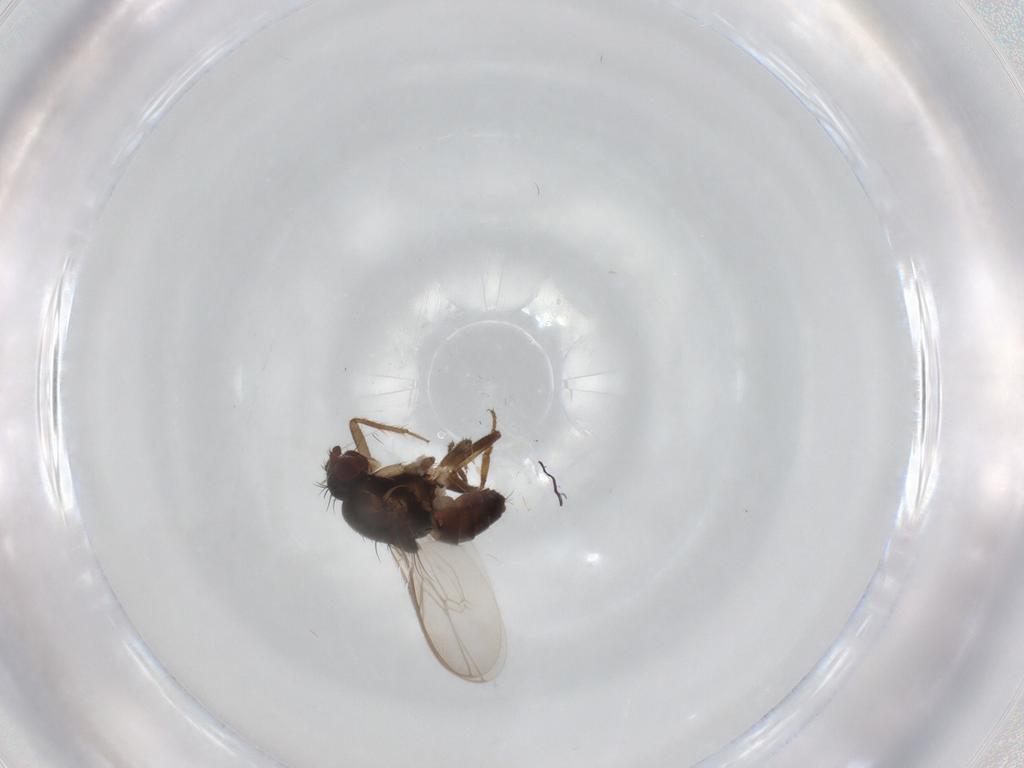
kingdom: Animalia
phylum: Arthropoda
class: Insecta
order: Diptera
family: Sphaeroceridae
